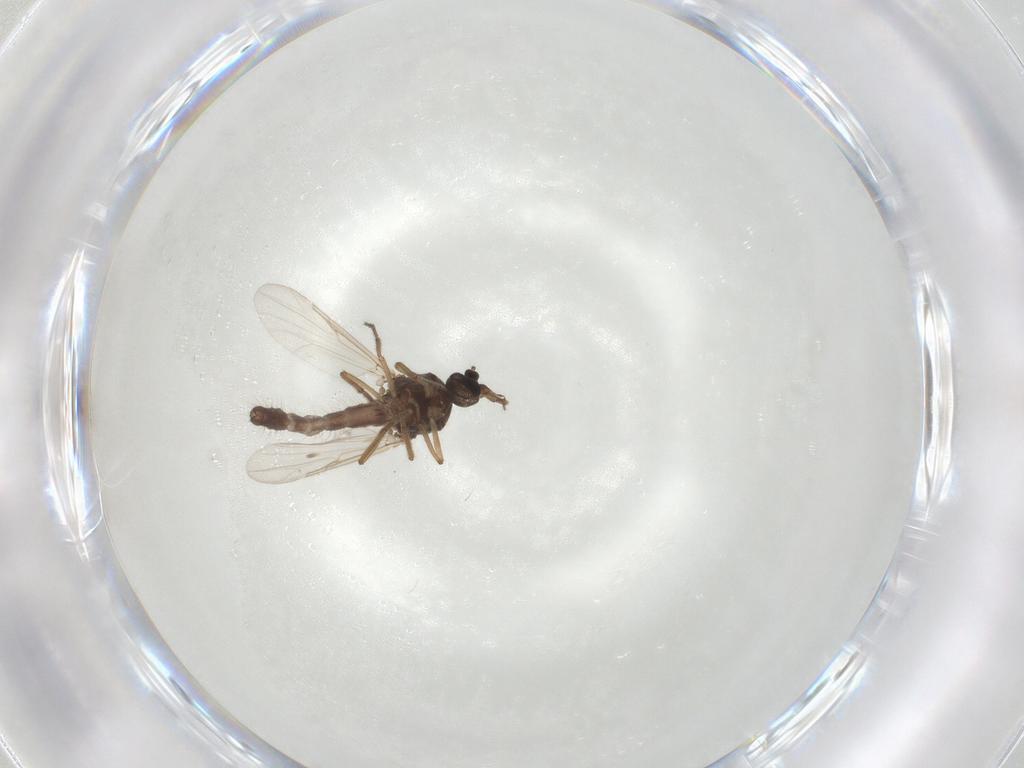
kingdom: Animalia
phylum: Arthropoda
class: Insecta
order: Diptera
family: Ceratopogonidae
